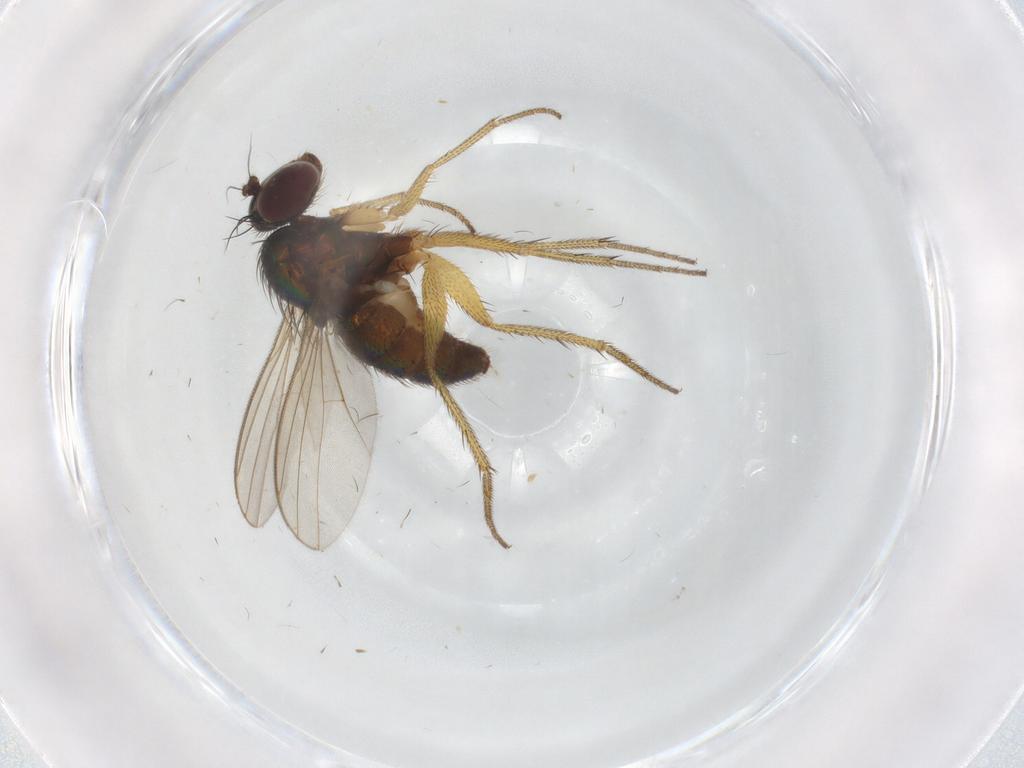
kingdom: Animalia
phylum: Arthropoda
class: Insecta
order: Diptera
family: Dolichopodidae
